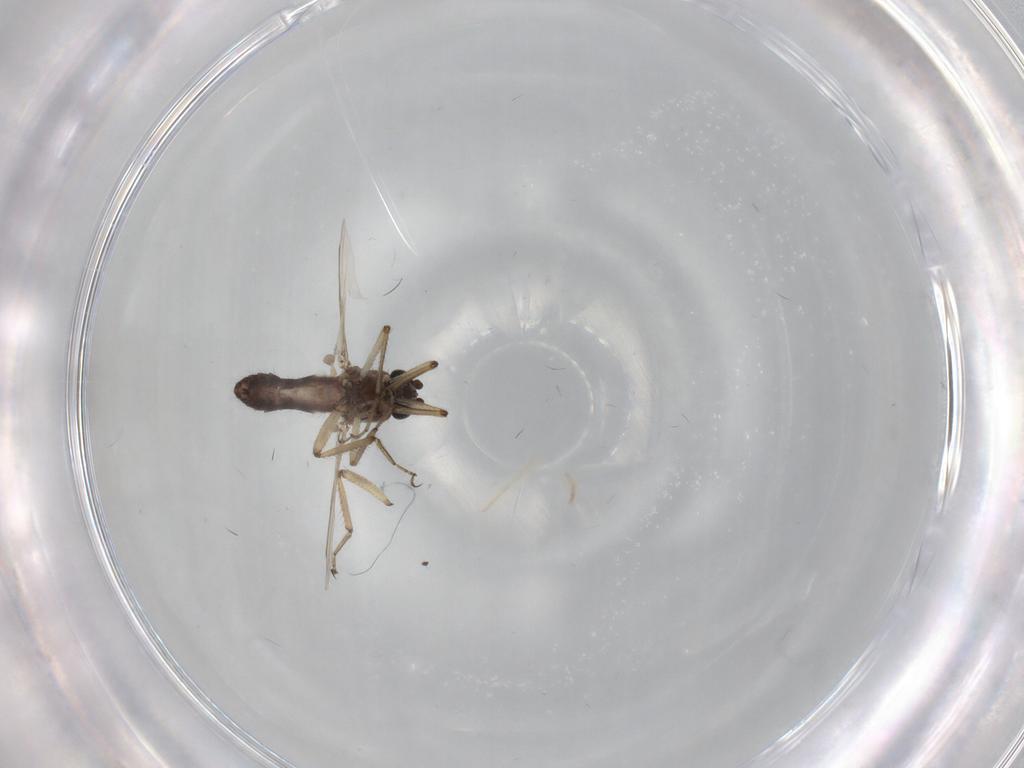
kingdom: Animalia
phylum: Arthropoda
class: Insecta
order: Diptera
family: Ceratopogonidae
